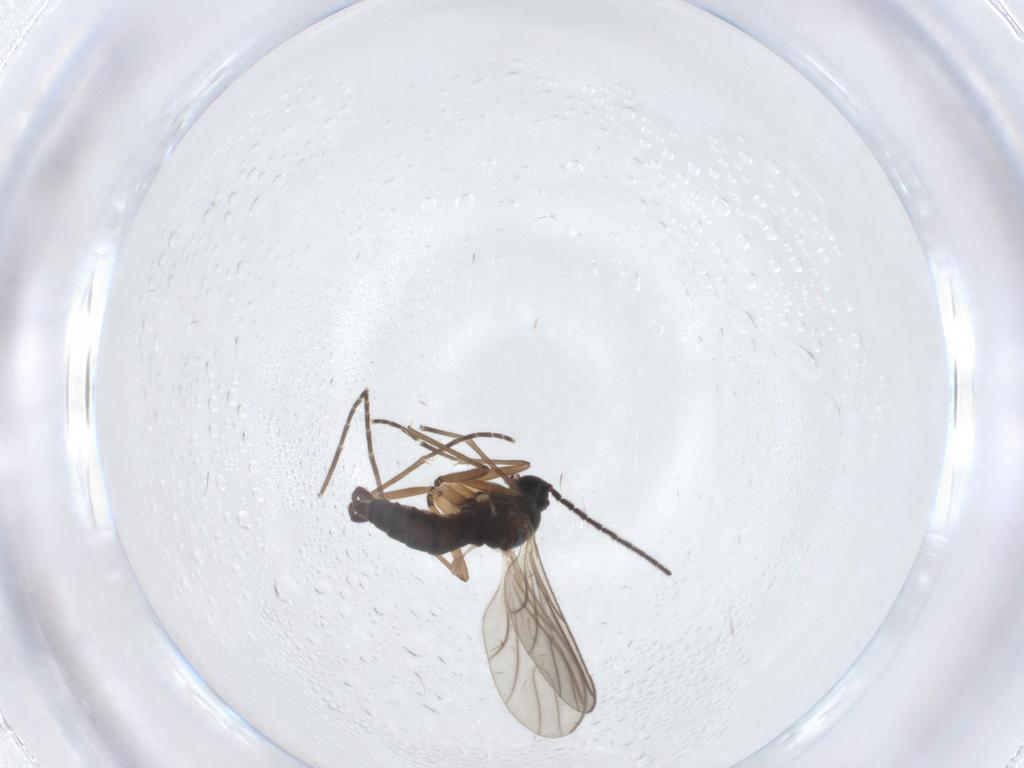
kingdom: Animalia
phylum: Arthropoda
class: Insecta
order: Diptera
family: Sciaridae
